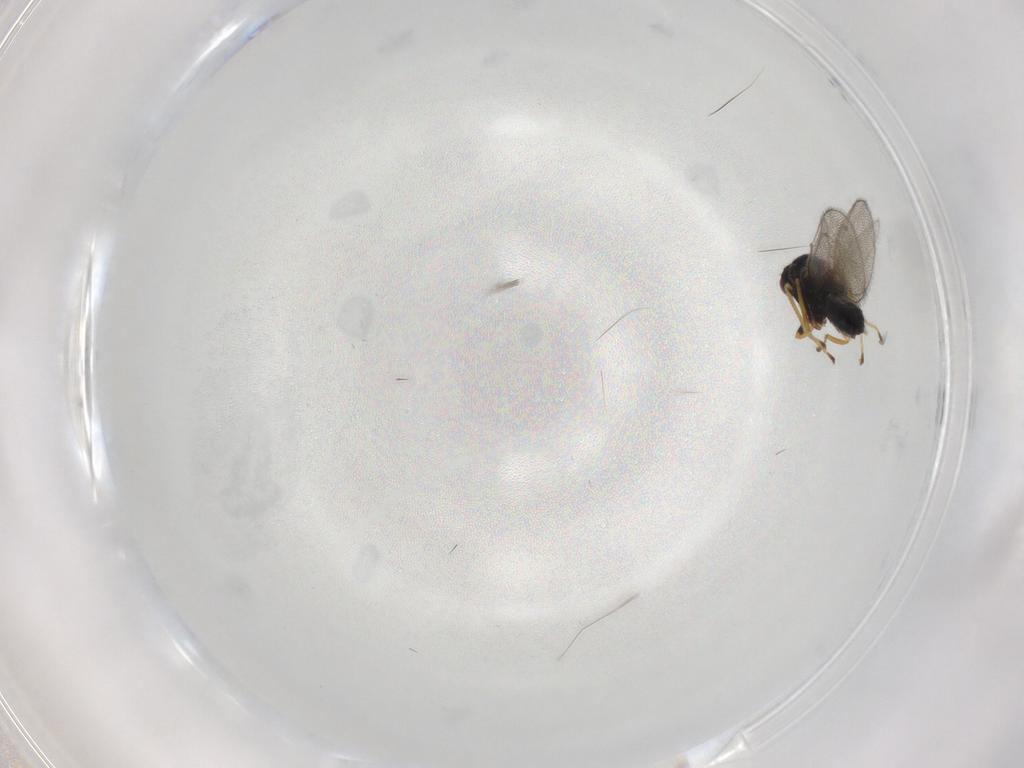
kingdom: Animalia
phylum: Arthropoda
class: Insecta
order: Hymenoptera
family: Eulophidae
